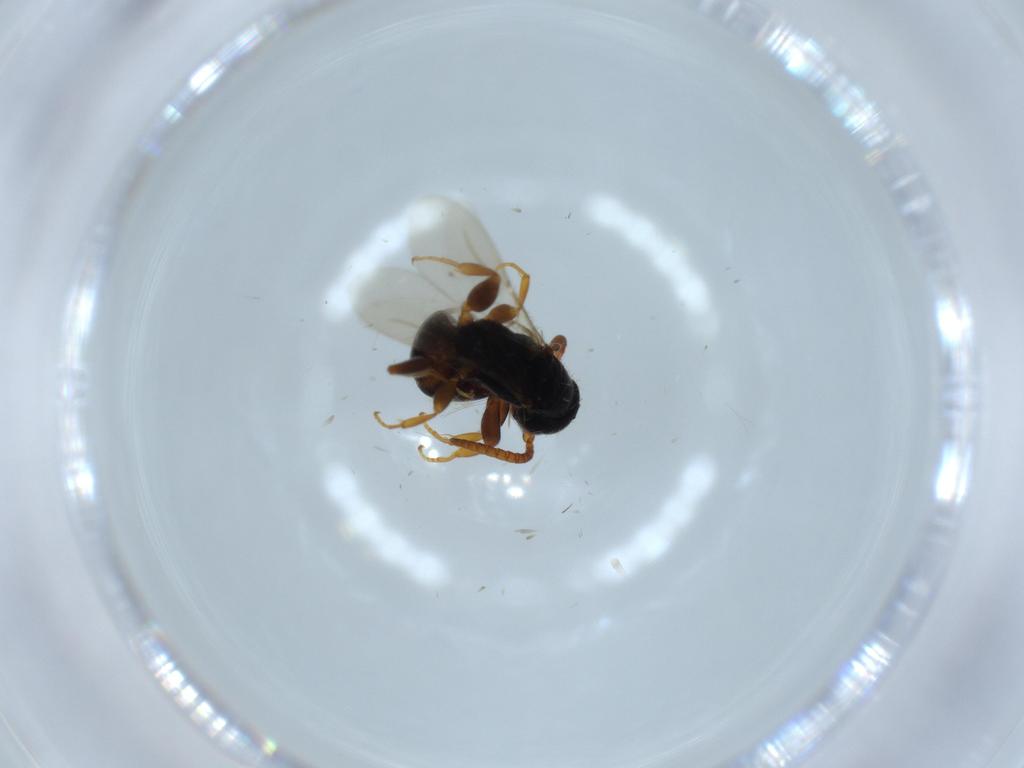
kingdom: Animalia
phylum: Arthropoda
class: Insecta
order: Hymenoptera
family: Bethylidae
